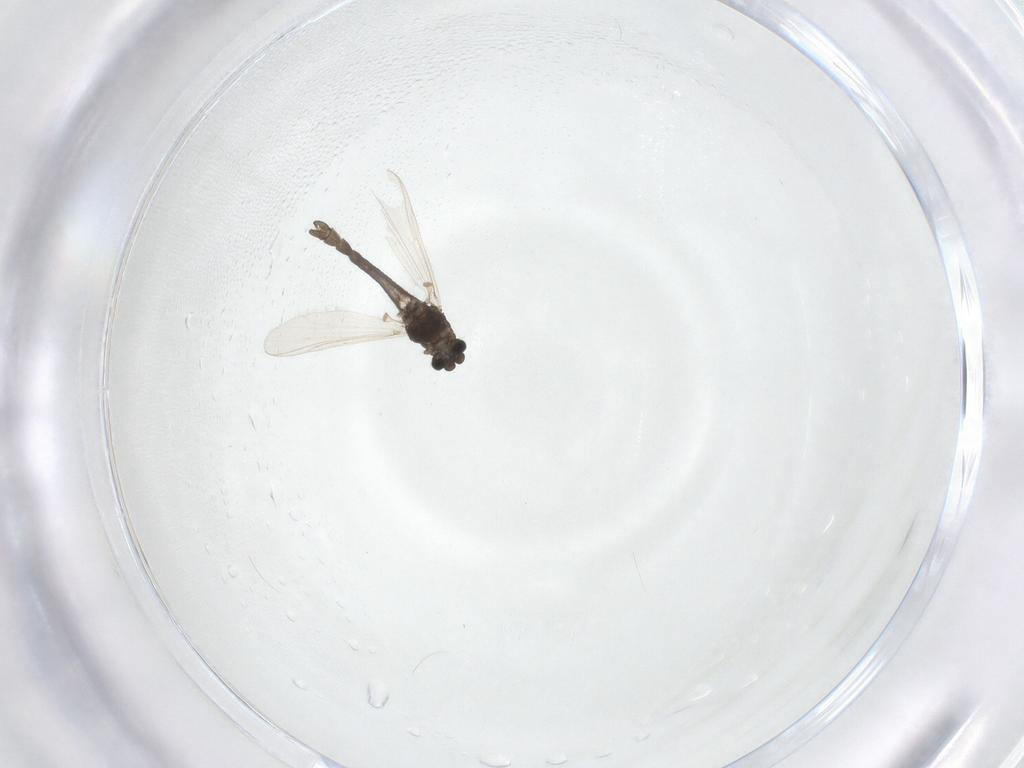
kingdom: Animalia
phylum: Arthropoda
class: Insecta
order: Diptera
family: Chironomidae
